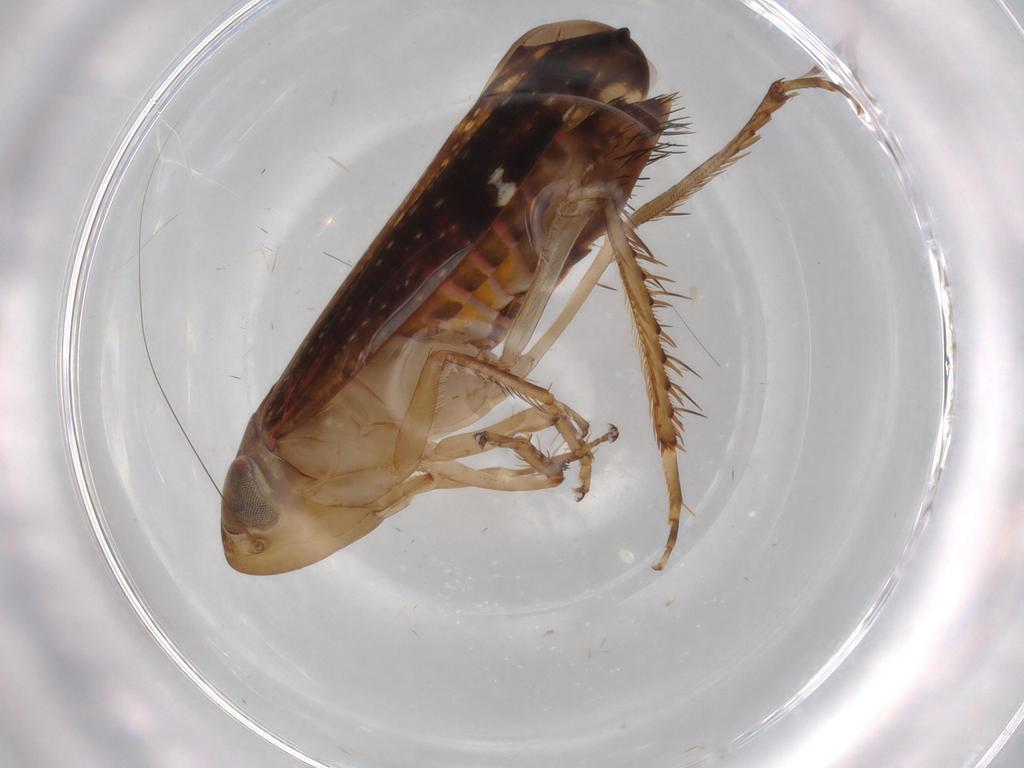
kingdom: Animalia
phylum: Arthropoda
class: Insecta
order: Hemiptera
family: Cicadellidae
